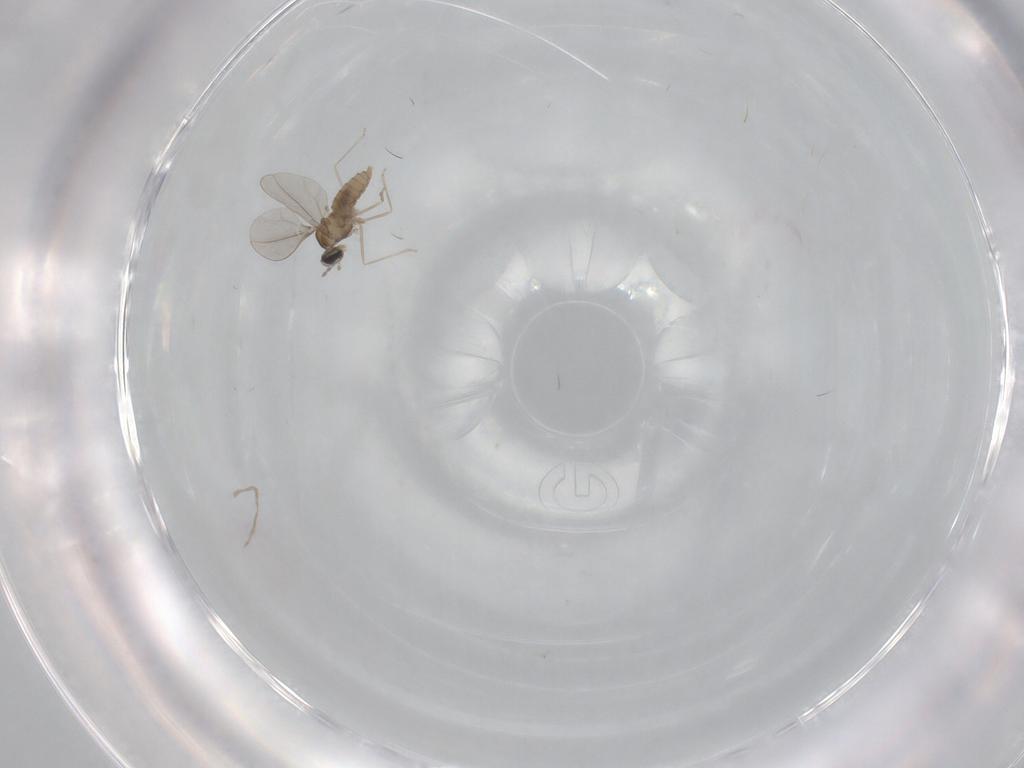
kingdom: Animalia
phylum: Arthropoda
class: Insecta
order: Diptera
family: Cecidomyiidae
